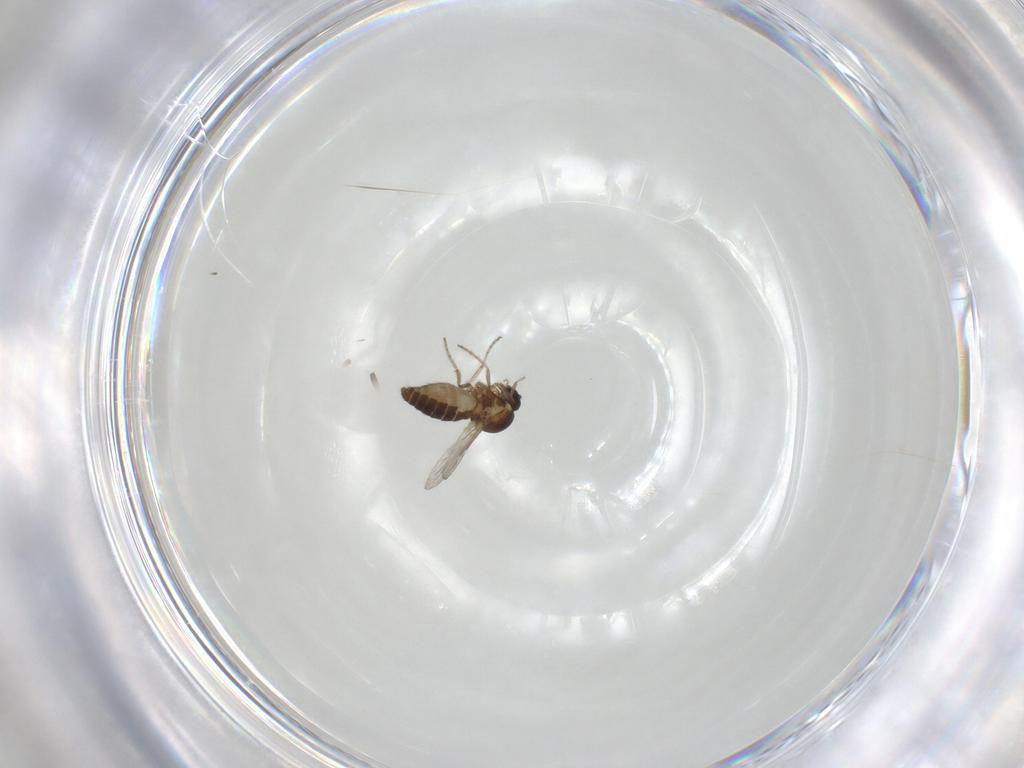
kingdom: Animalia
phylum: Arthropoda
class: Insecta
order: Diptera
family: Ceratopogonidae
